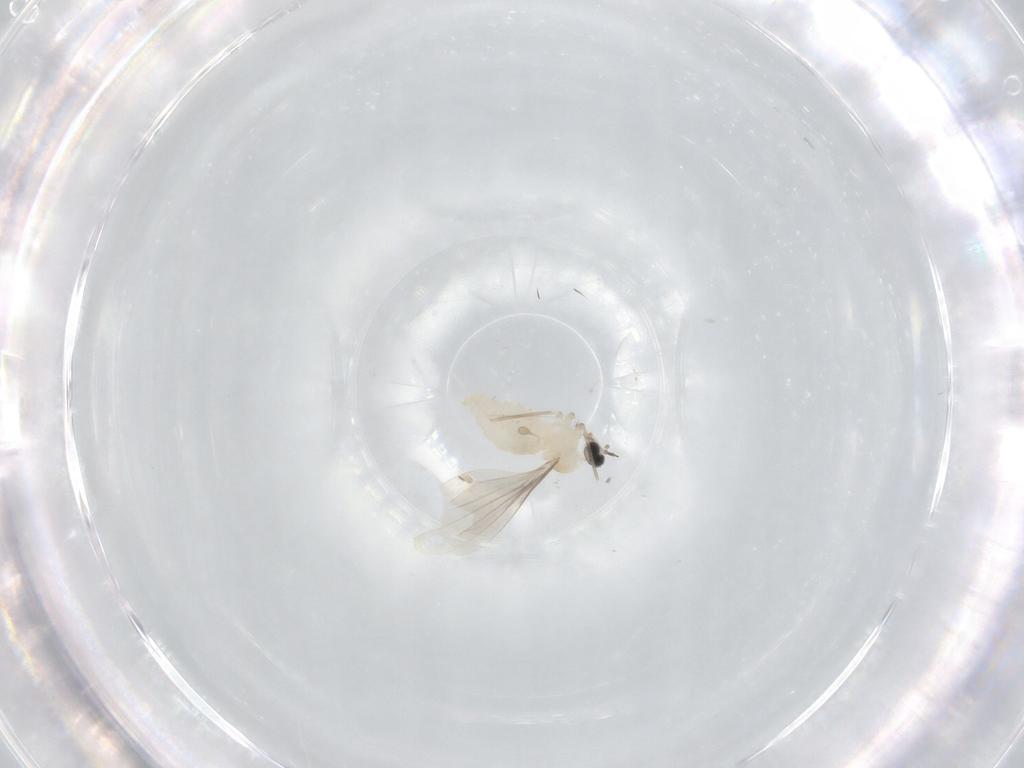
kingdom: Animalia
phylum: Arthropoda
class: Insecta
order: Diptera
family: Cecidomyiidae
